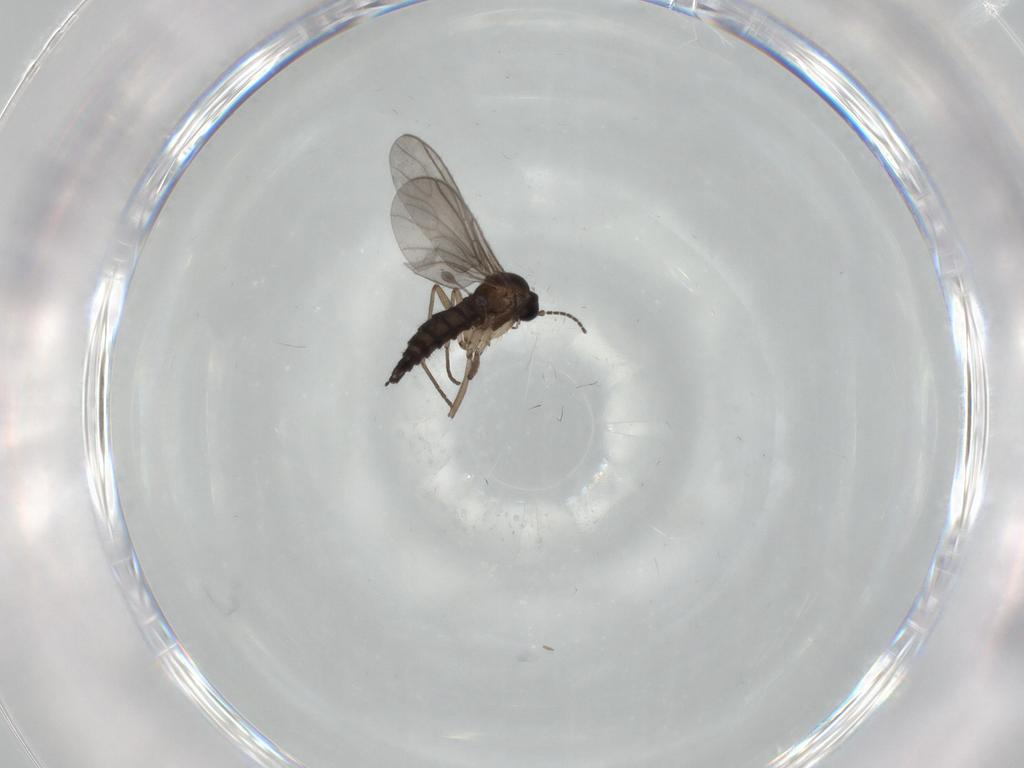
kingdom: Animalia
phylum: Arthropoda
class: Insecta
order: Diptera
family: Sciaridae
